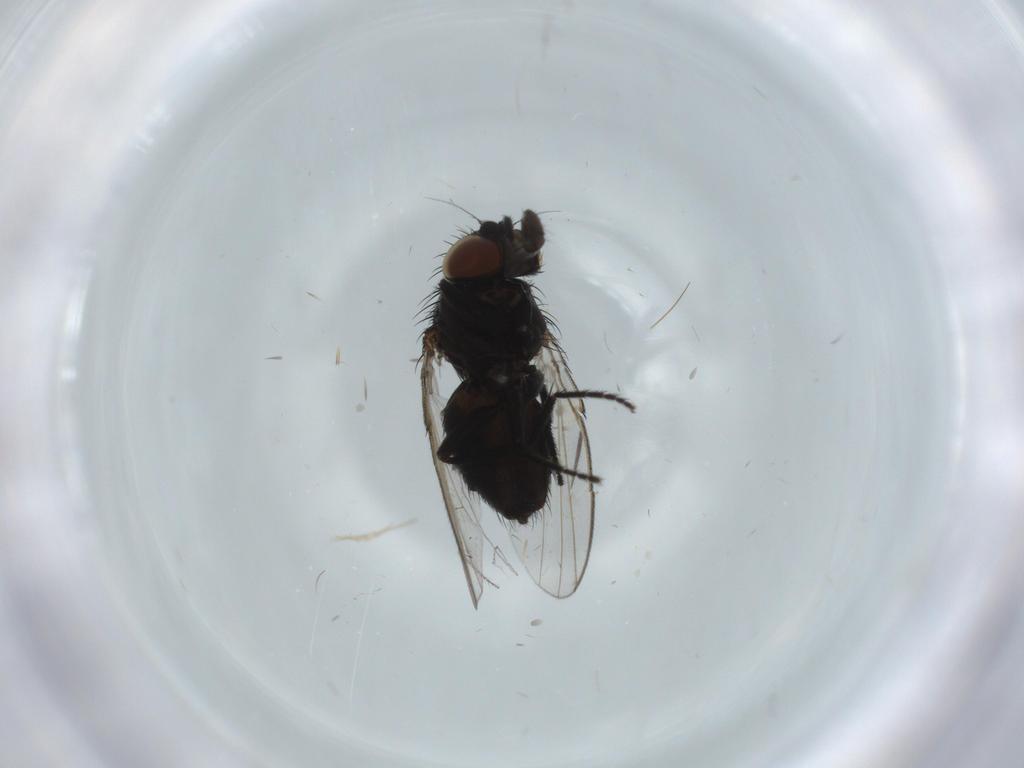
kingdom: Animalia
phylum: Arthropoda
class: Insecta
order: Diptera
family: Milichiidae
